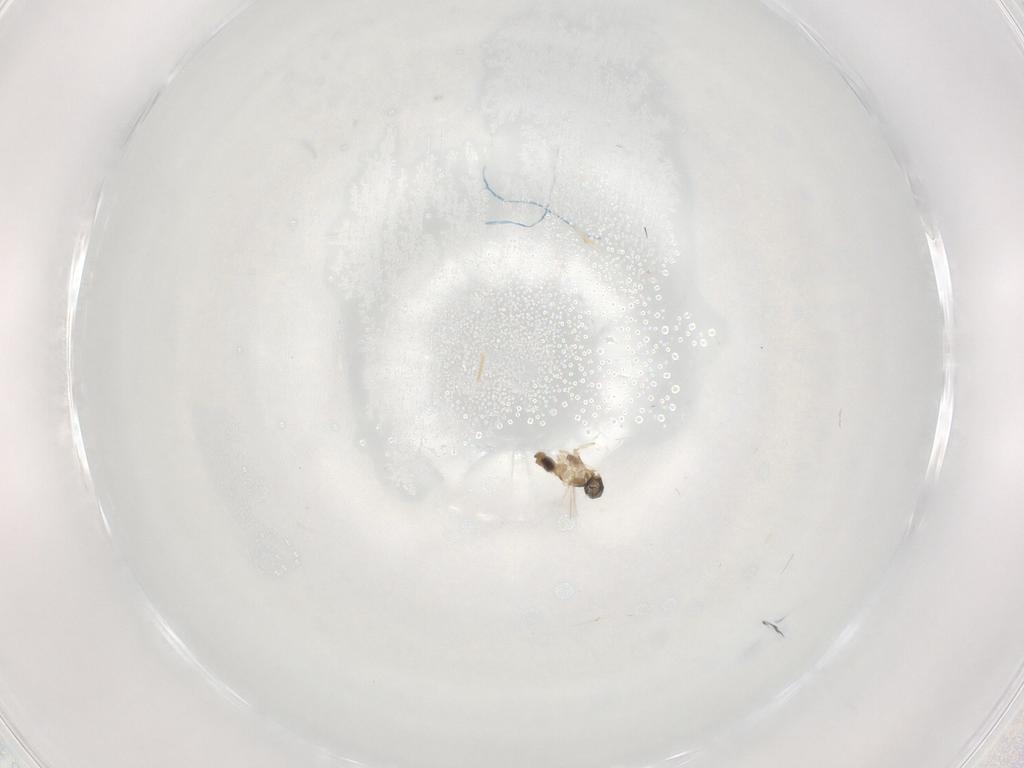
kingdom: Animalia
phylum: Arthropoda
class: Insecta
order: Diptera
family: Cecidomyiidae
